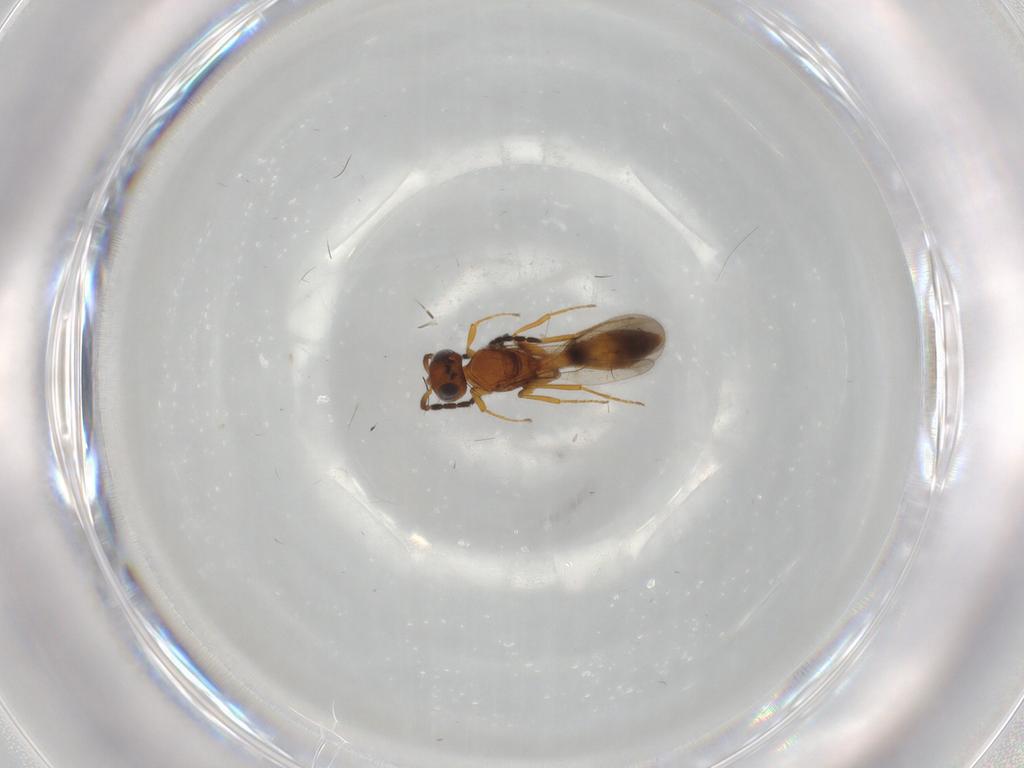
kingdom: Animalia
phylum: Arthropoda
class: Insecta
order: Hymenoptera
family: Scelionidae
